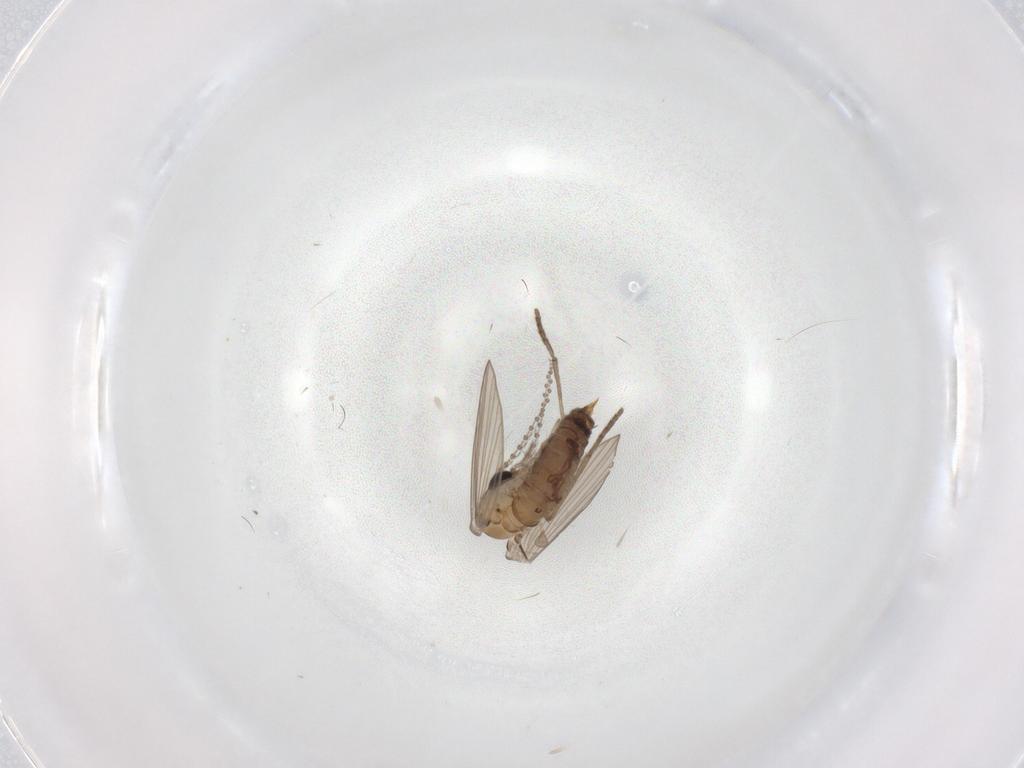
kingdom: Animalia
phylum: Arthropoda
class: Insecta
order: Diptera
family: Psychodidae
